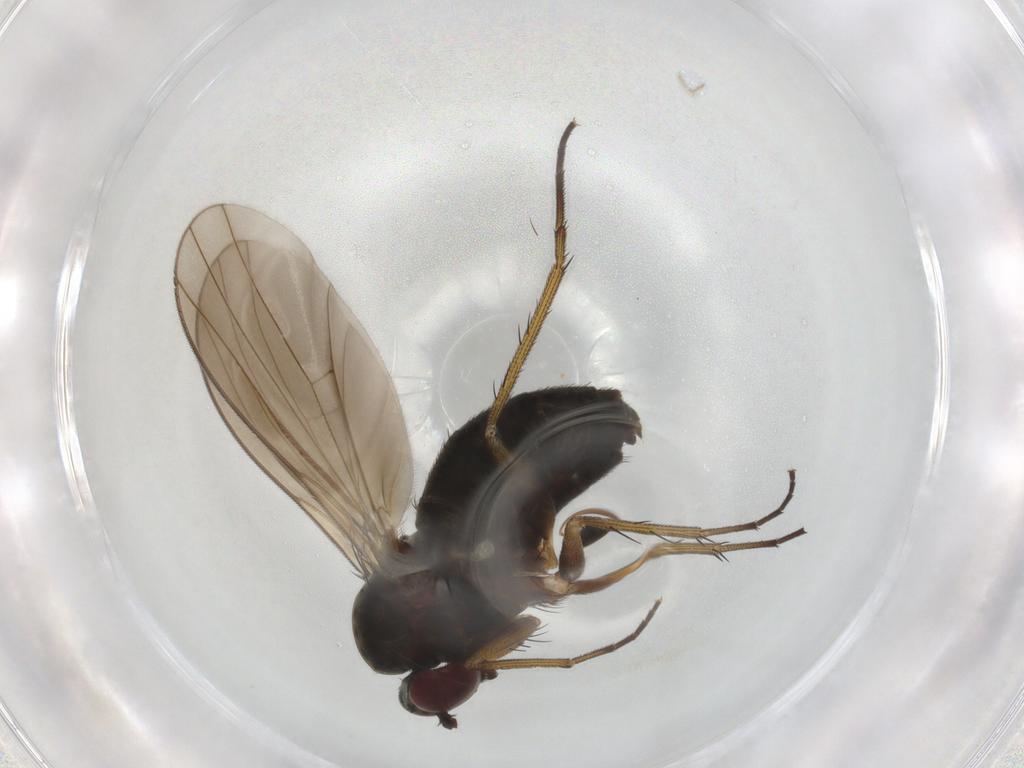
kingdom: Animalia
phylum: Arthropoda
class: Insecta
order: Diptera
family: Dolichopodidae
